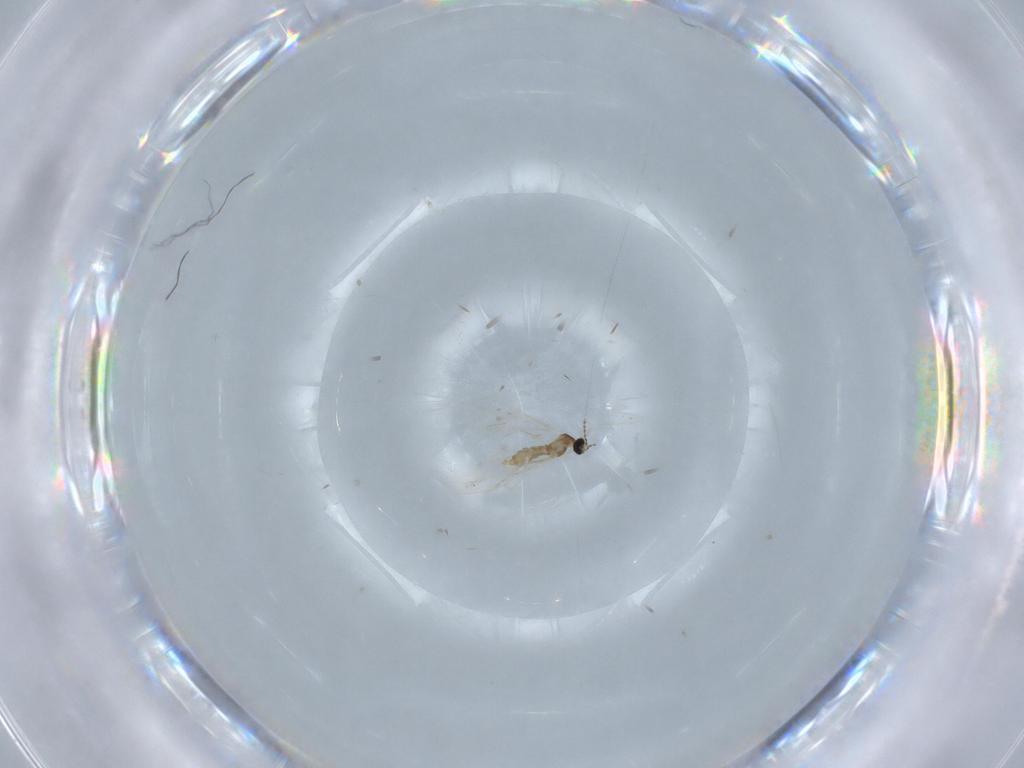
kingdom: Animalia
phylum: Arthropoda
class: Insecta
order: Diptera
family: Cecidomyiidae
